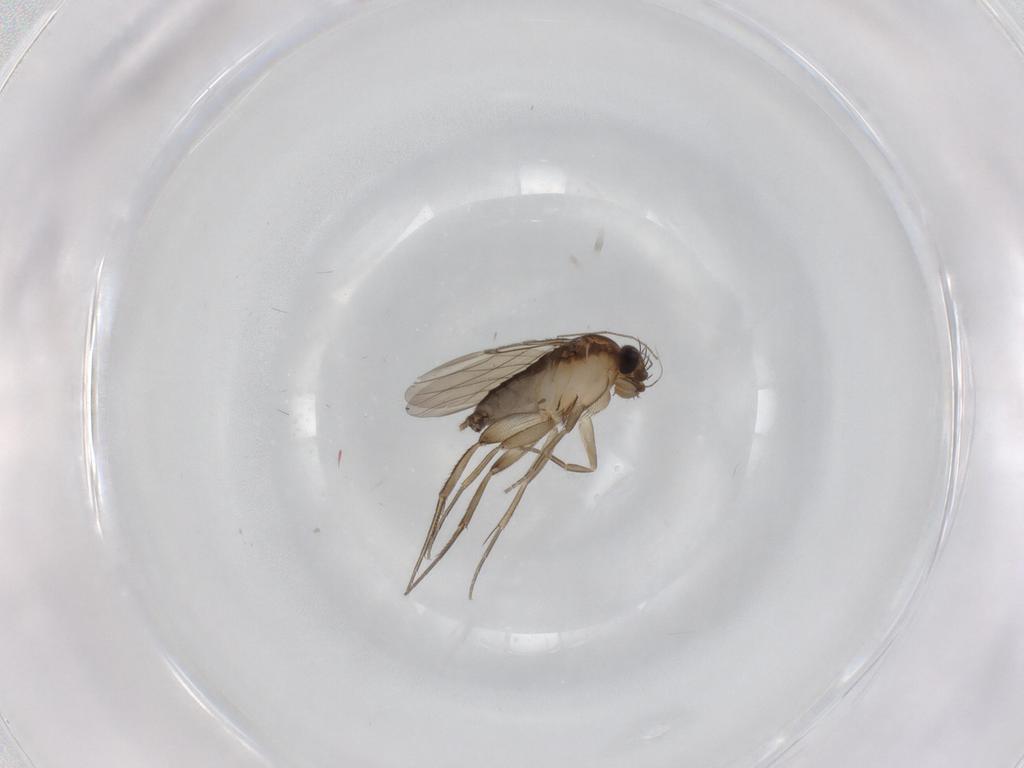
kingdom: Animalia
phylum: Arthropoda
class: Insecta
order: Diptera
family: Phoridae
